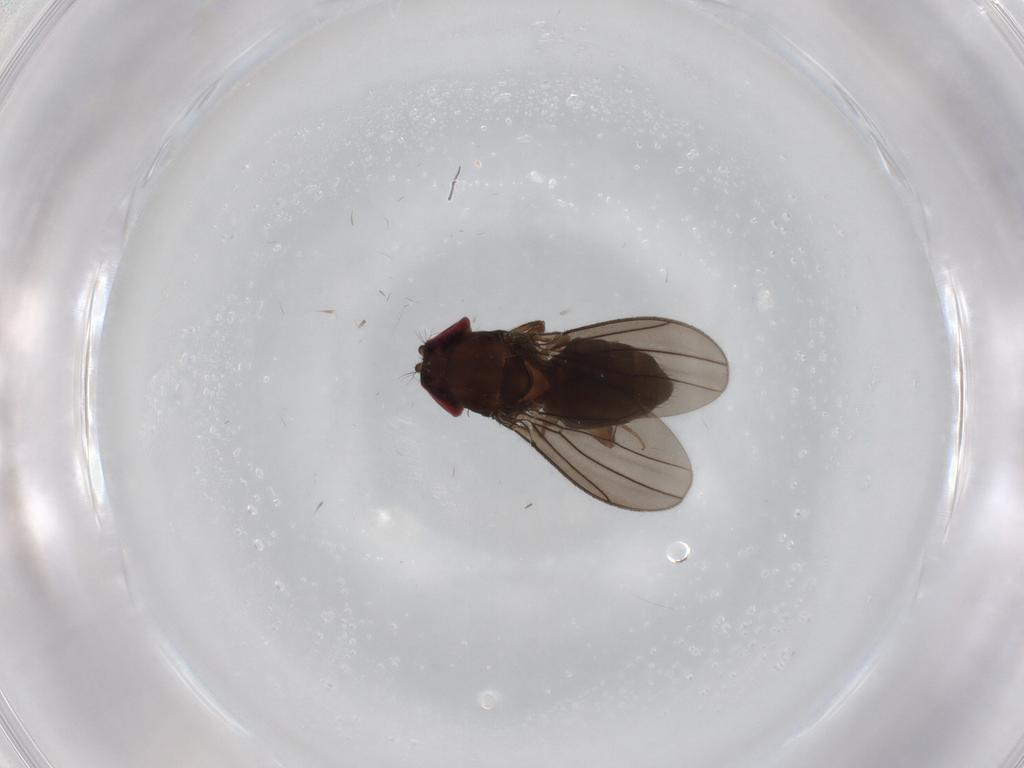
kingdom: Animalia
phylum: Arthropoda
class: Insecta
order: Diptera
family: Drosophilidae
